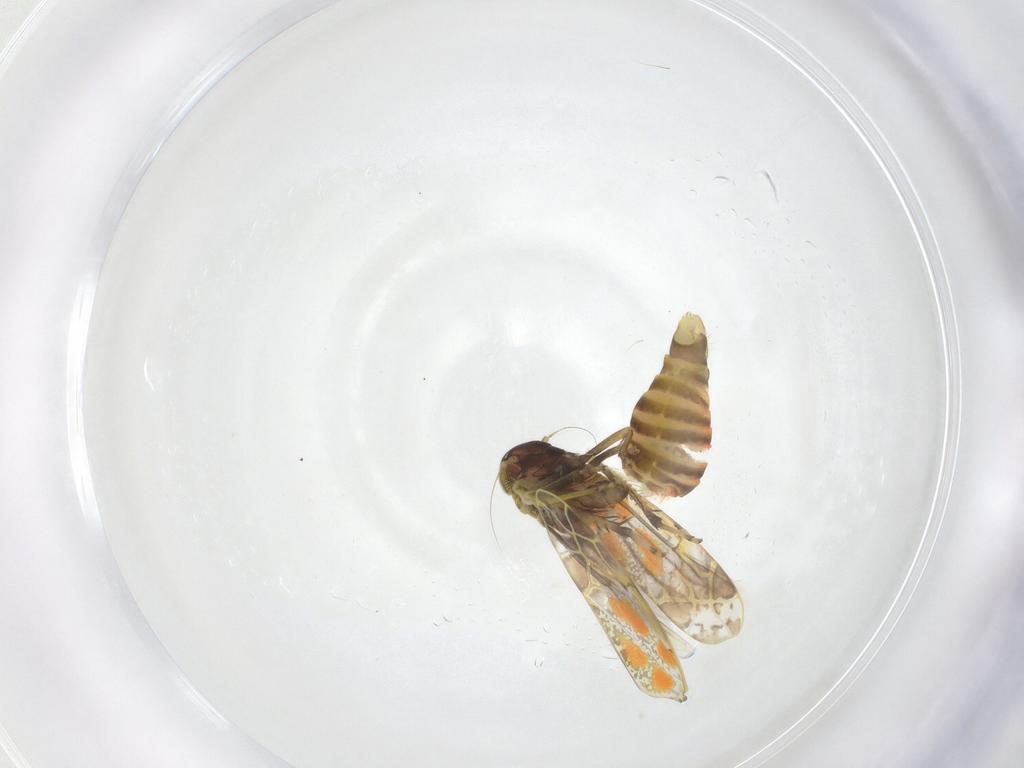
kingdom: Animalia
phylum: Arthropoda
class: Insecta
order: Hemiptera
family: Cicadellidae
